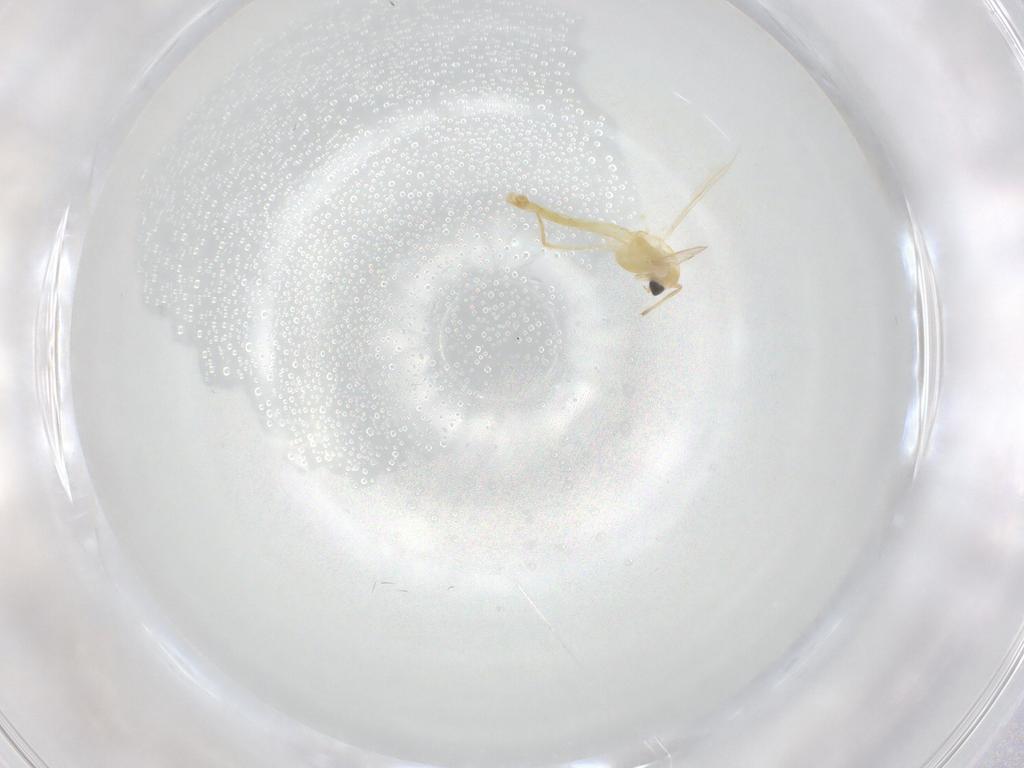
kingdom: Animalia
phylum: Arthropoda
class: Insecta
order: Diptera
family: Chironomidae
